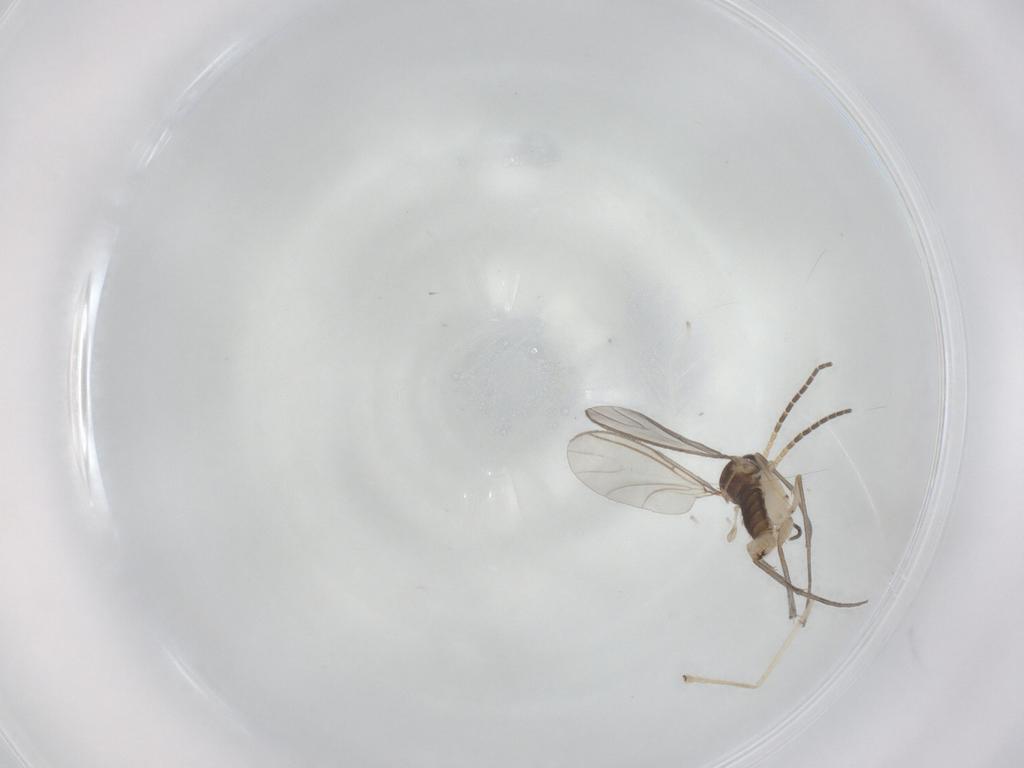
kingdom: Animalia
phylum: Arthropoda
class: Insecta
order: Diptera
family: Sciaridae
